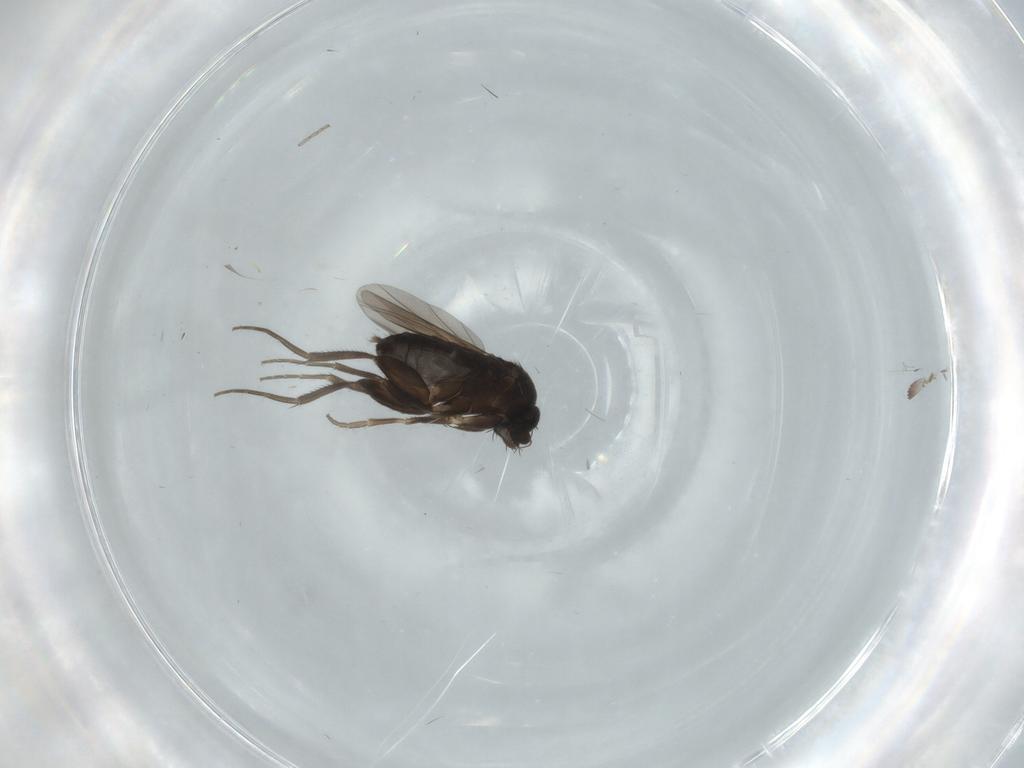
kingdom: Animalia
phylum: Arthropoda
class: Insecta
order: Diptera
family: Phoridae
